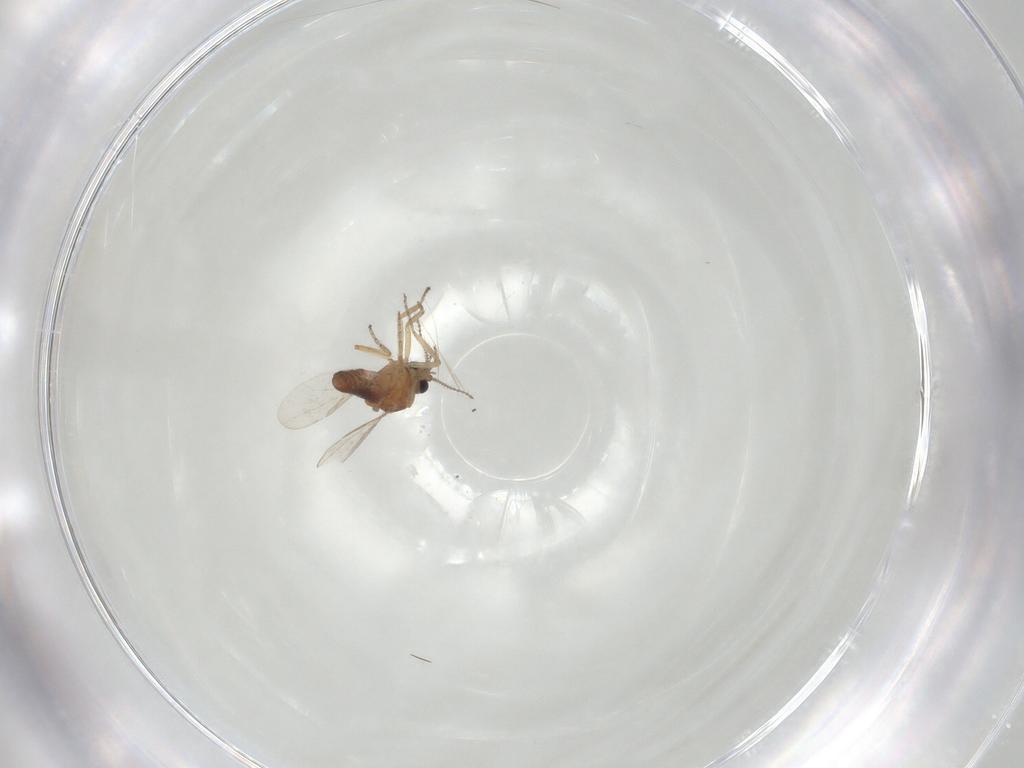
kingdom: Animalia
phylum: Arthropoda
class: Insecta
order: Diptera
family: Ceratopogonidae
